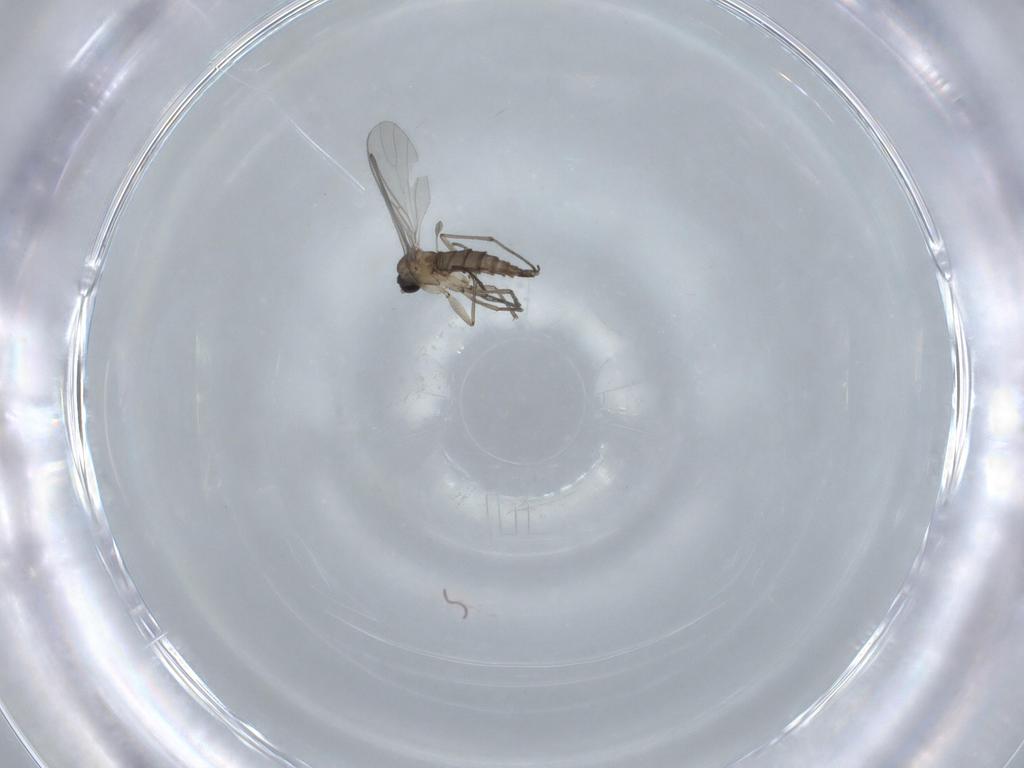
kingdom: Animalia
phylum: Arthropoda
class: Insecta
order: Diptera
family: Sciaridae
